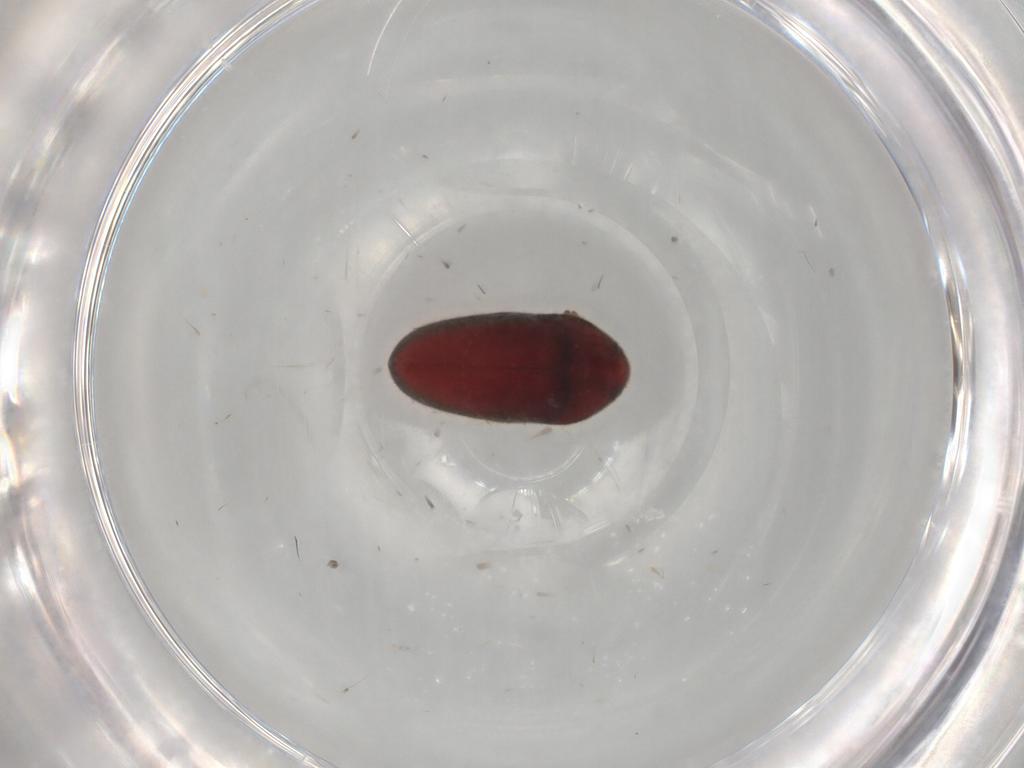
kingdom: Animalia
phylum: Arthropoda
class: Insecta
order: Coleoptera
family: Throscidae
